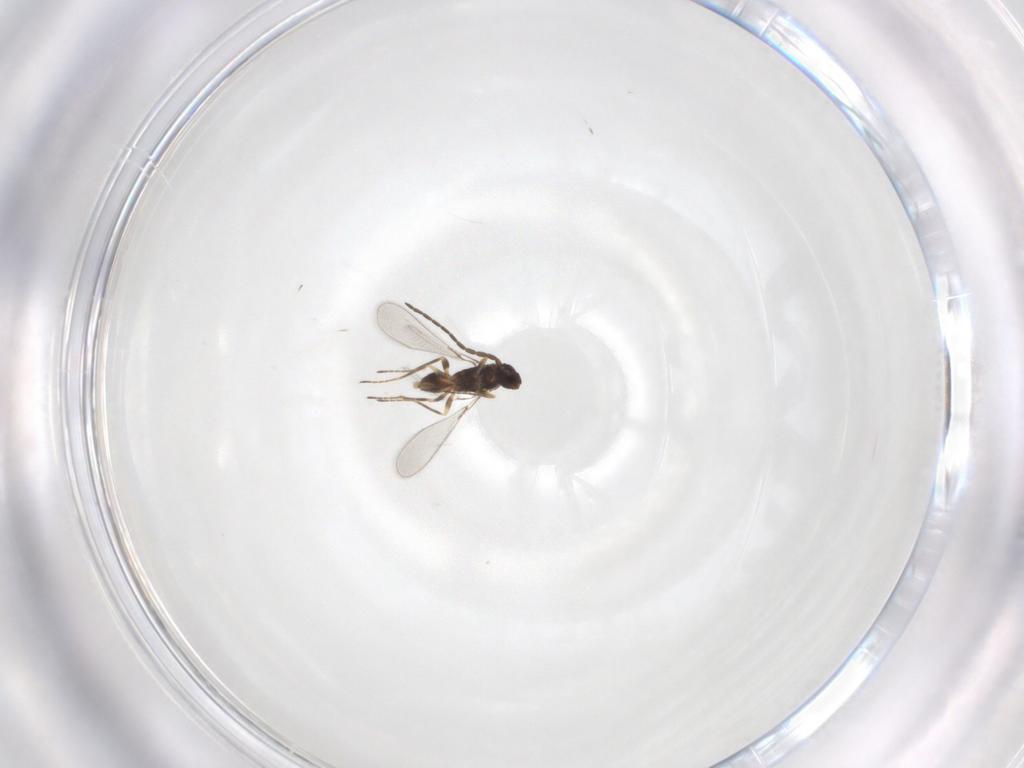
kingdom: Animalia
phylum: Arthropoda
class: Insecta
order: Hymenoptera
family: Mymaridae
